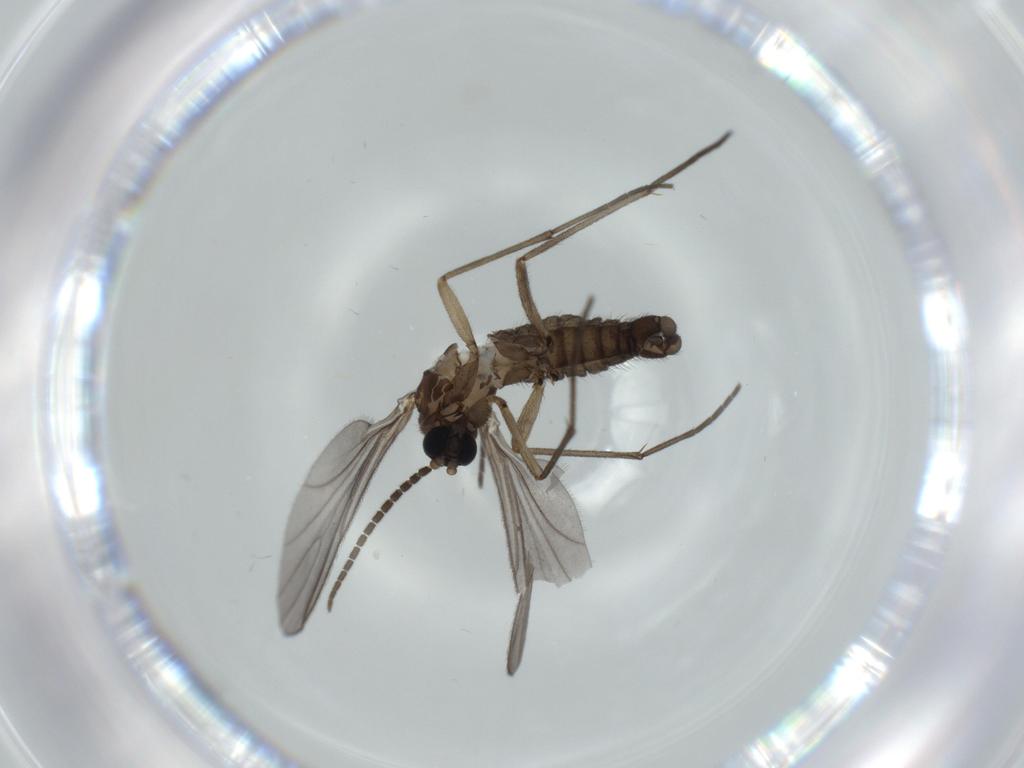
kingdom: Animalia
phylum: Arthropoda
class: Insecta
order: Diptera
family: Sciaridae
